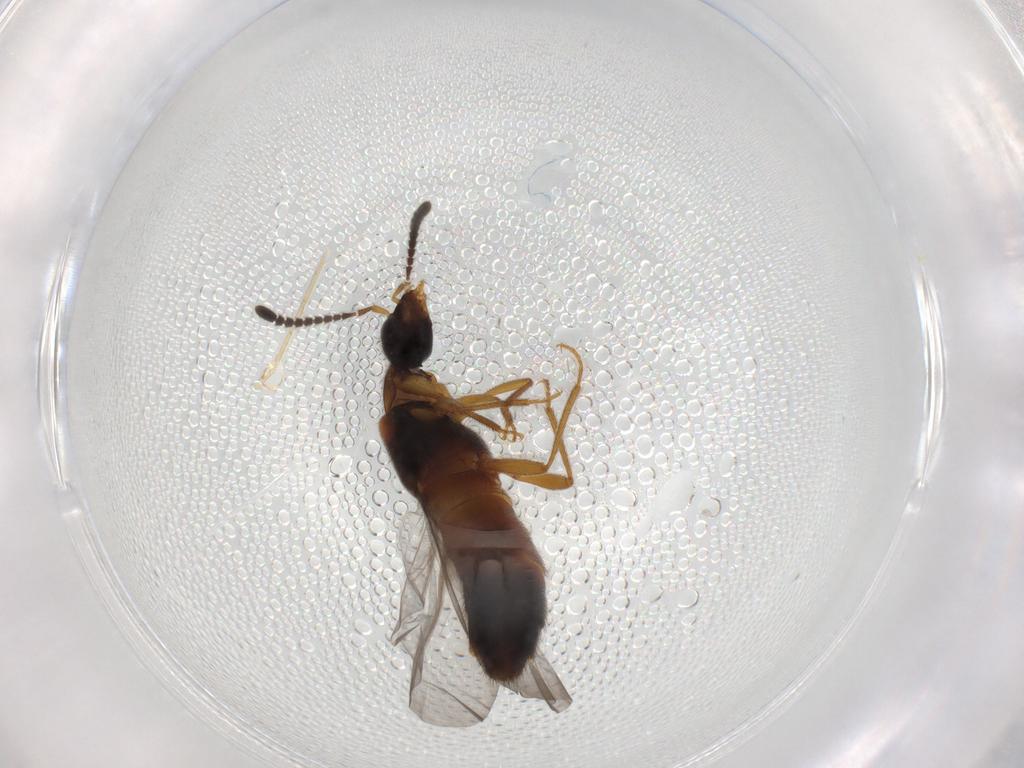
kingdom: Animalia
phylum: Arthropoda
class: Insecta
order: Coleoptera
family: Staphylinidae
